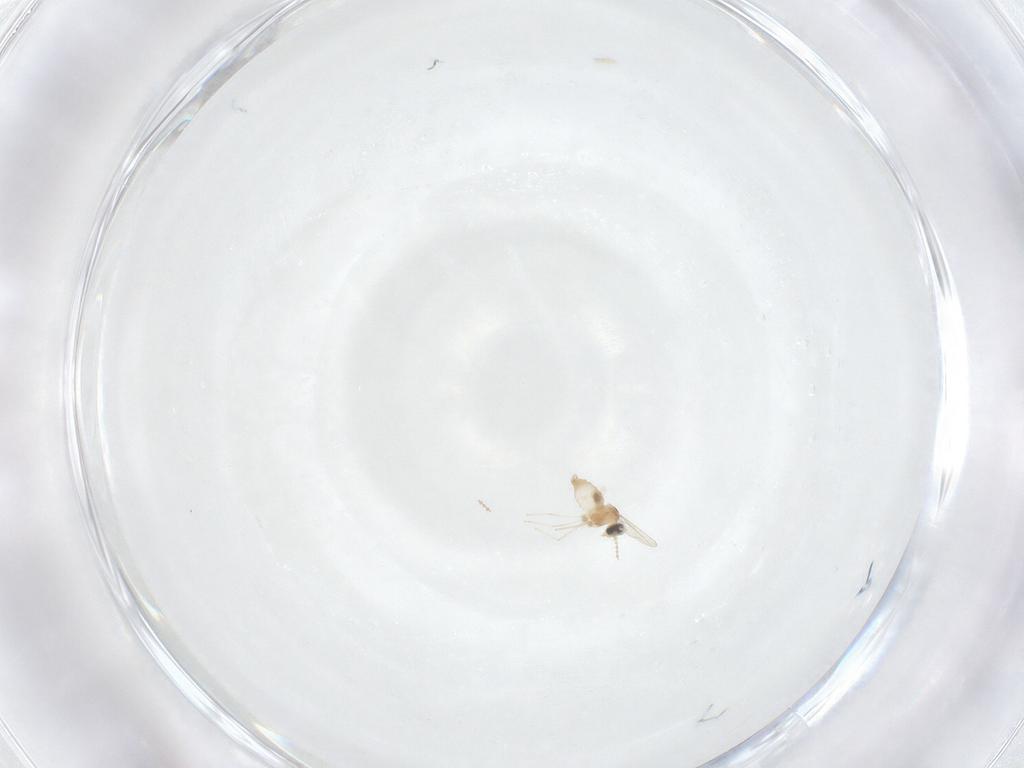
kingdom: Animalia
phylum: Arthropoda
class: Insecta
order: Diptera
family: Cecidomyiidae
